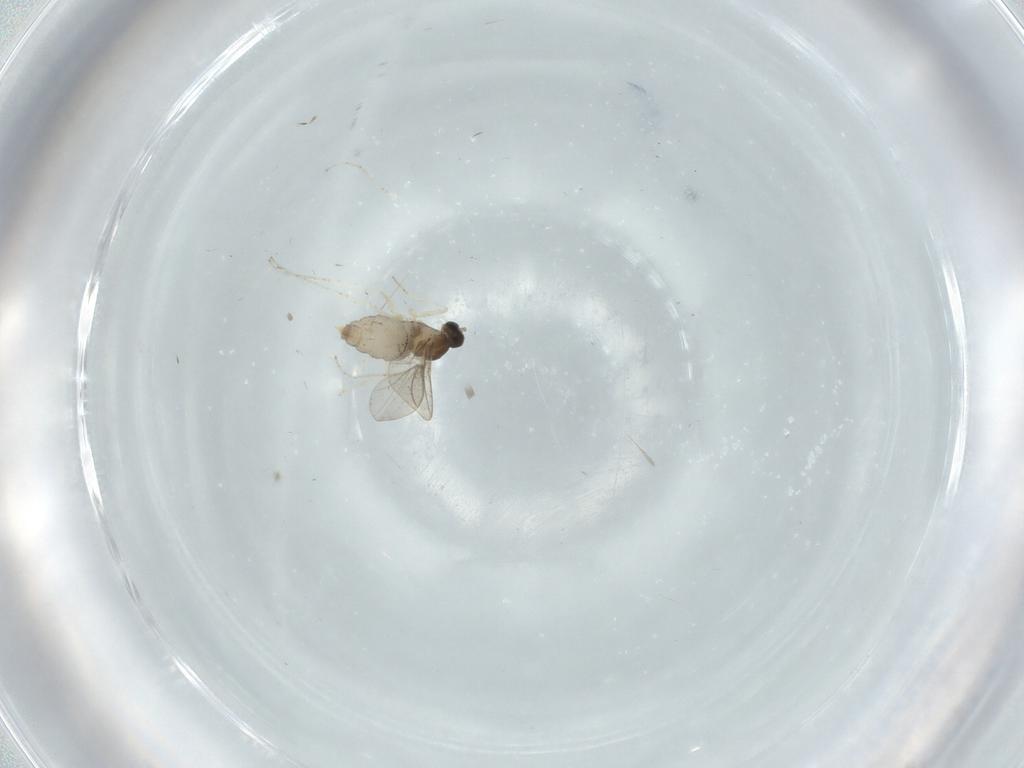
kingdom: Animalia
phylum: Arthropoda
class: Insecta
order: Diptera
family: Cecidomyiidae
